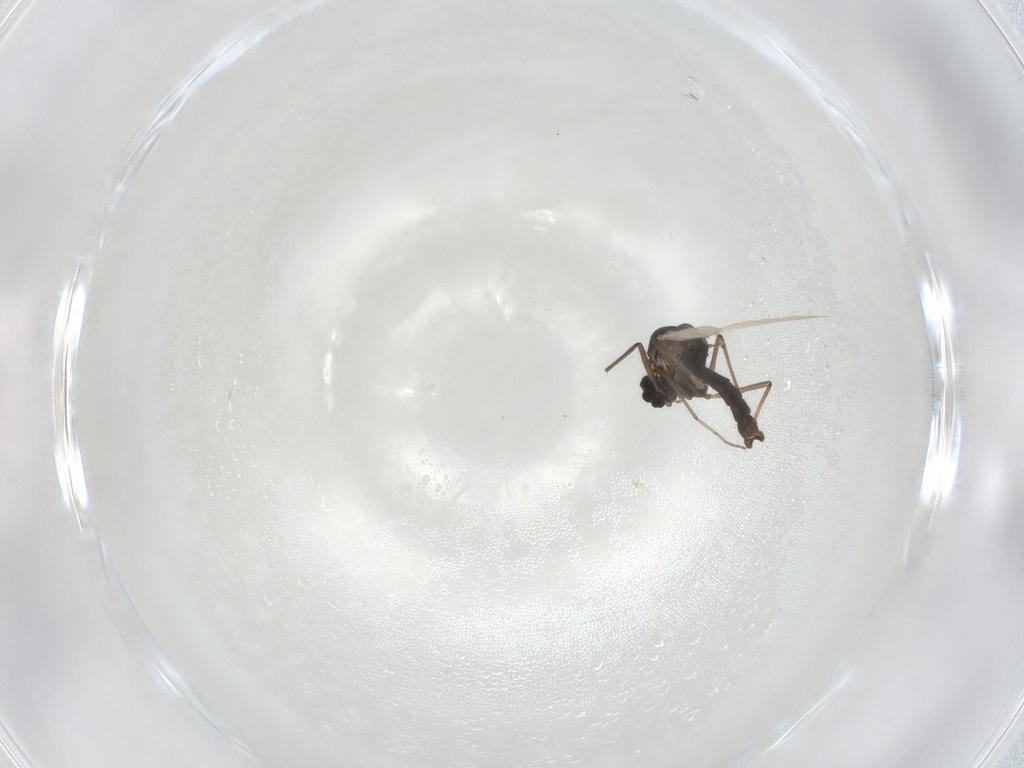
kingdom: Animalia
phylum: Arthropoda
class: Insecta
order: Diptera
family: Chironomidae
